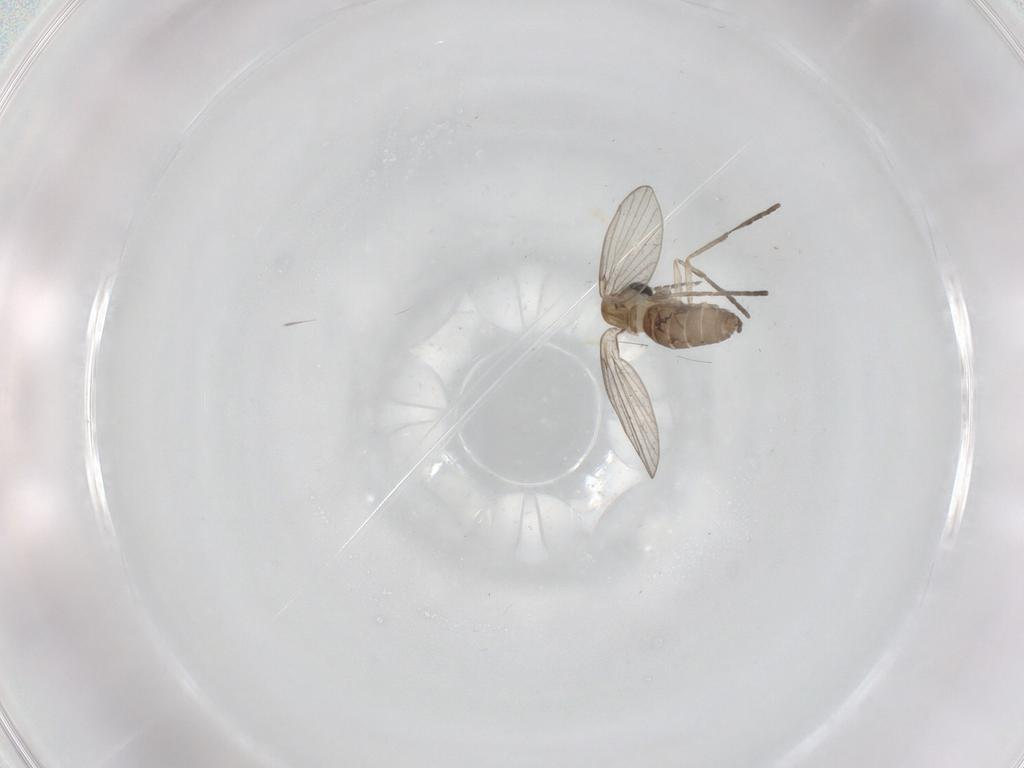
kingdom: Animalia
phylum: Arthropoda
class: Insecta
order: Diptera
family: Psychodidae
